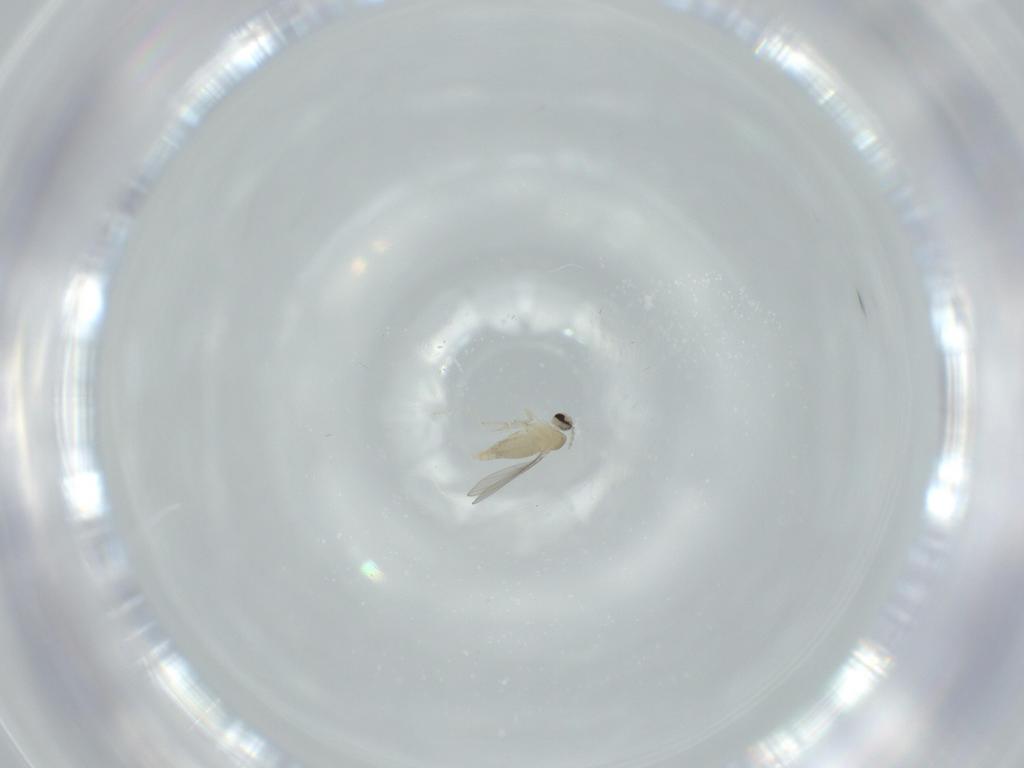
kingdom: Animalia
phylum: Arthropoda
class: Insecta
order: Diptera
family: Cecidomyiidae
